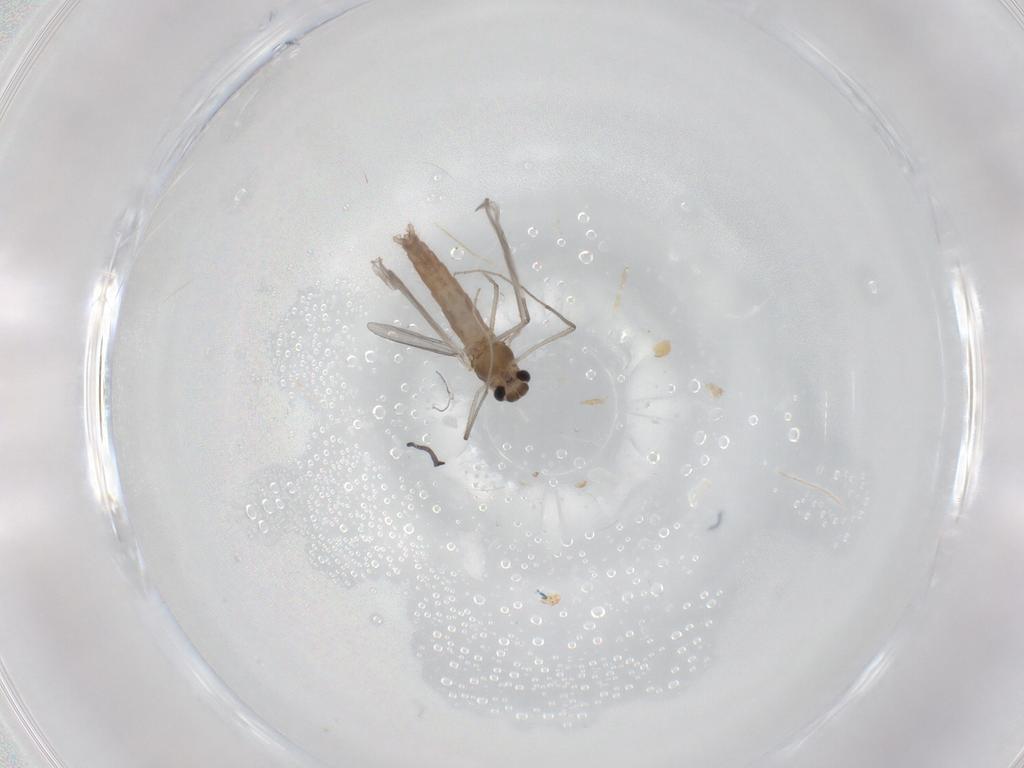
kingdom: Animalia
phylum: Arthropoda
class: Insecta
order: Diptera
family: Chironomidae
